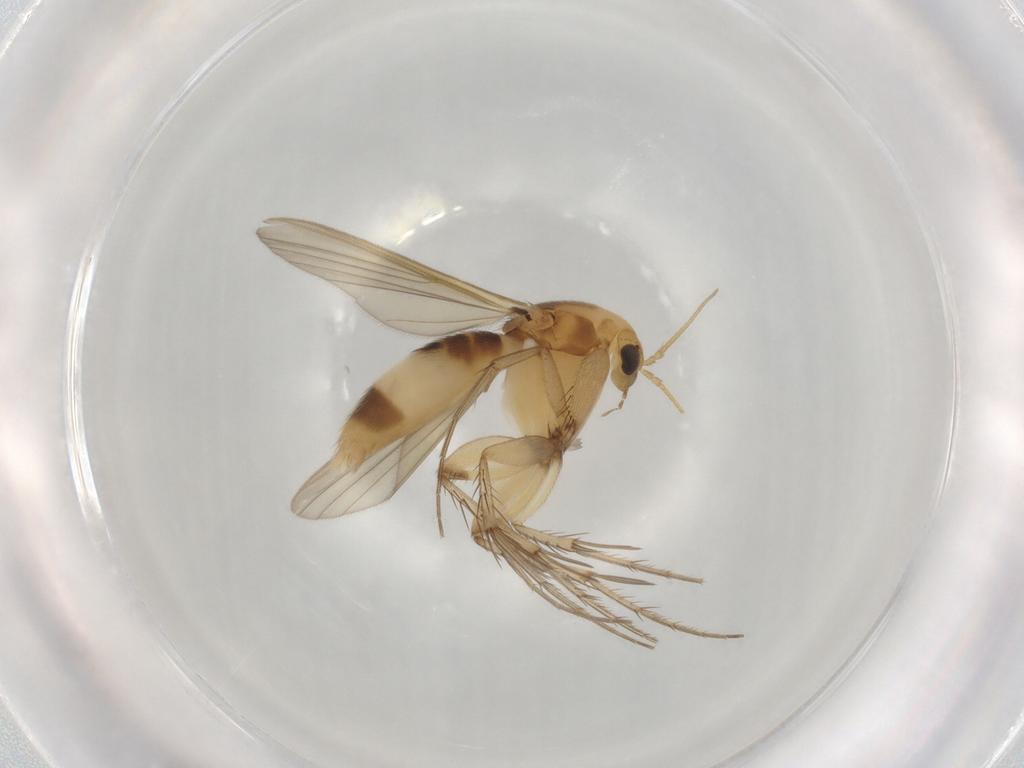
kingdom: Animalia
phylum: Arthropoda
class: Insecta
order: Diptera
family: Mycetophilidae
